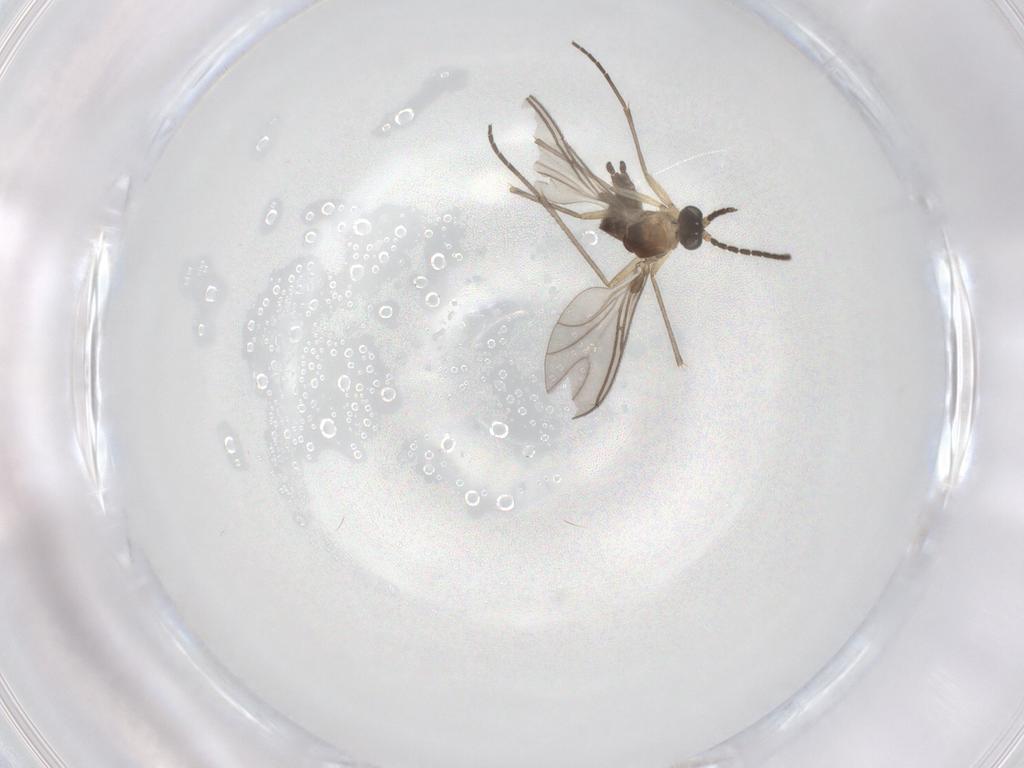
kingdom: Animalia
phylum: Arthropoda
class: Insecta
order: Diptera
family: Sciaridae
